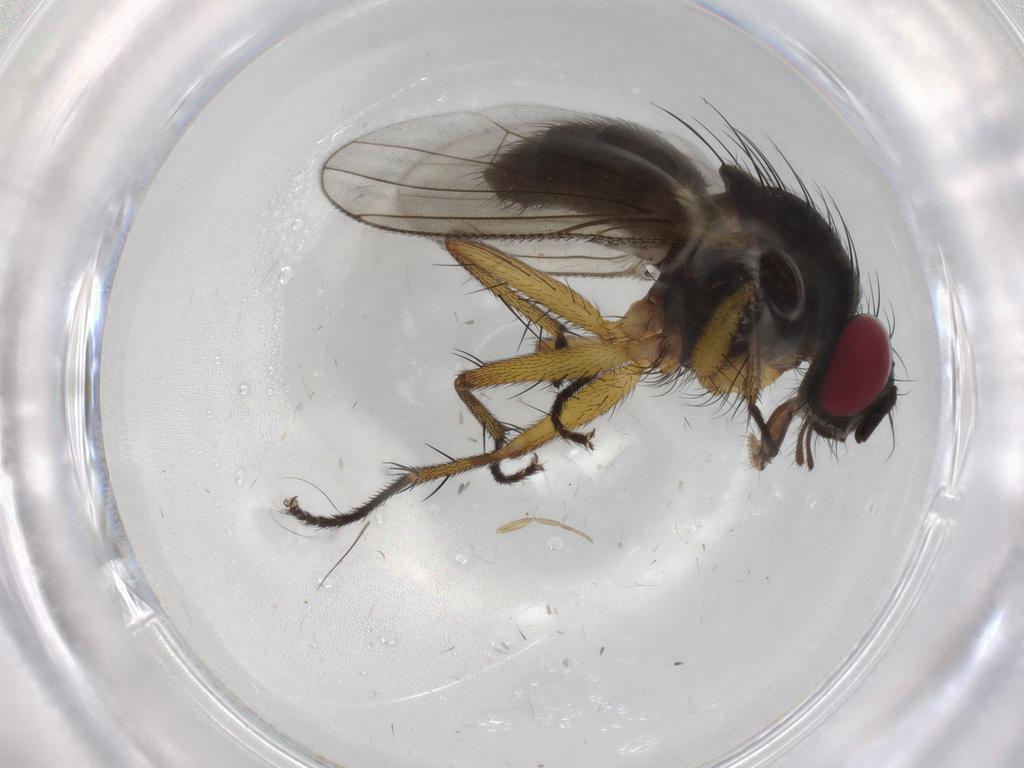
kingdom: Animalia
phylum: Arthropoda
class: Insecta
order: Diptera
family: Muscidae
